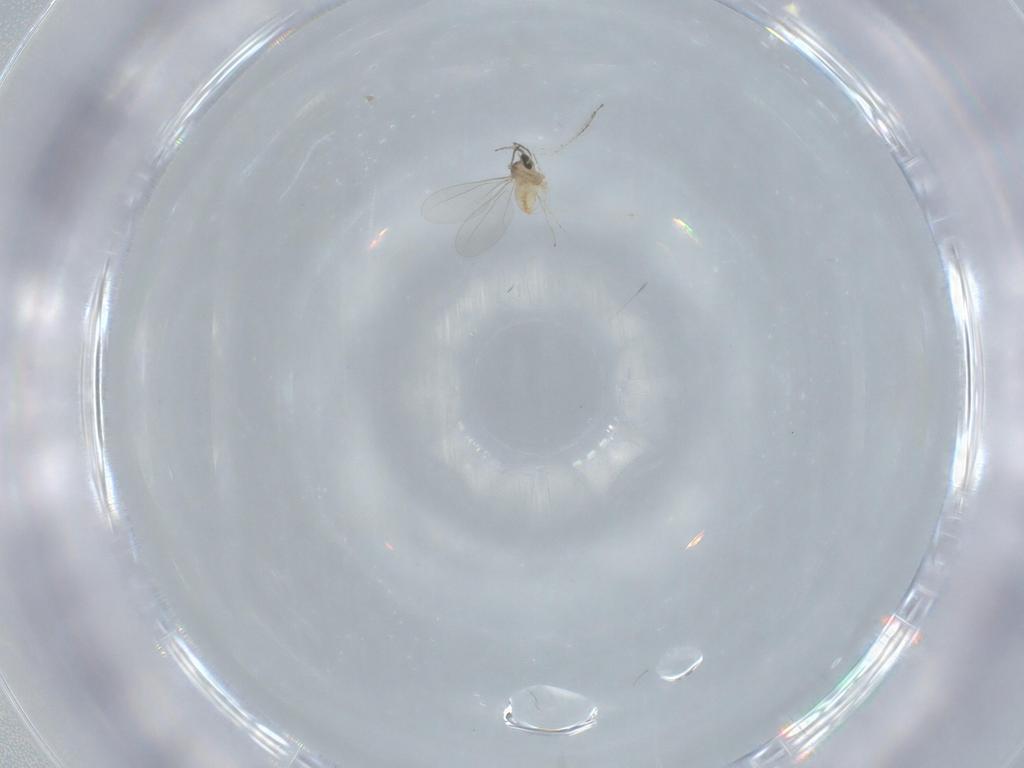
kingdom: Animalia
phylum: Arthropoda
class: Insecta
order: Diptera
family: Cecidomyiidae
